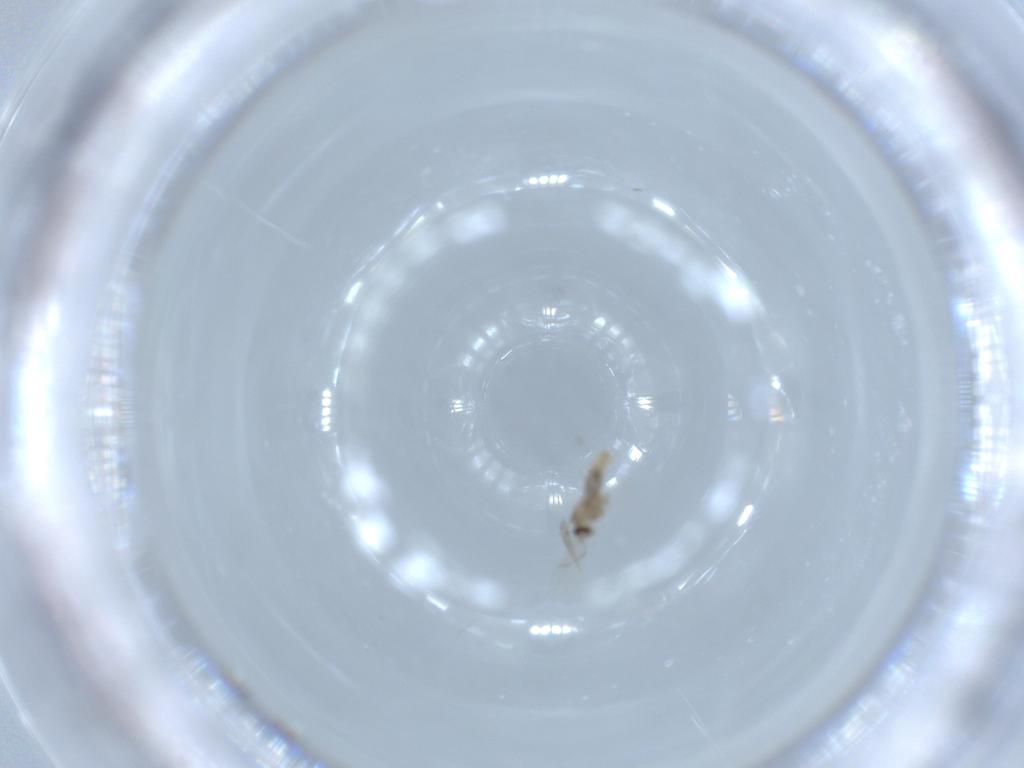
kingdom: Animalia
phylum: Arthropoda
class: Insecta
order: Diptera
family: Cecidomyiidae
